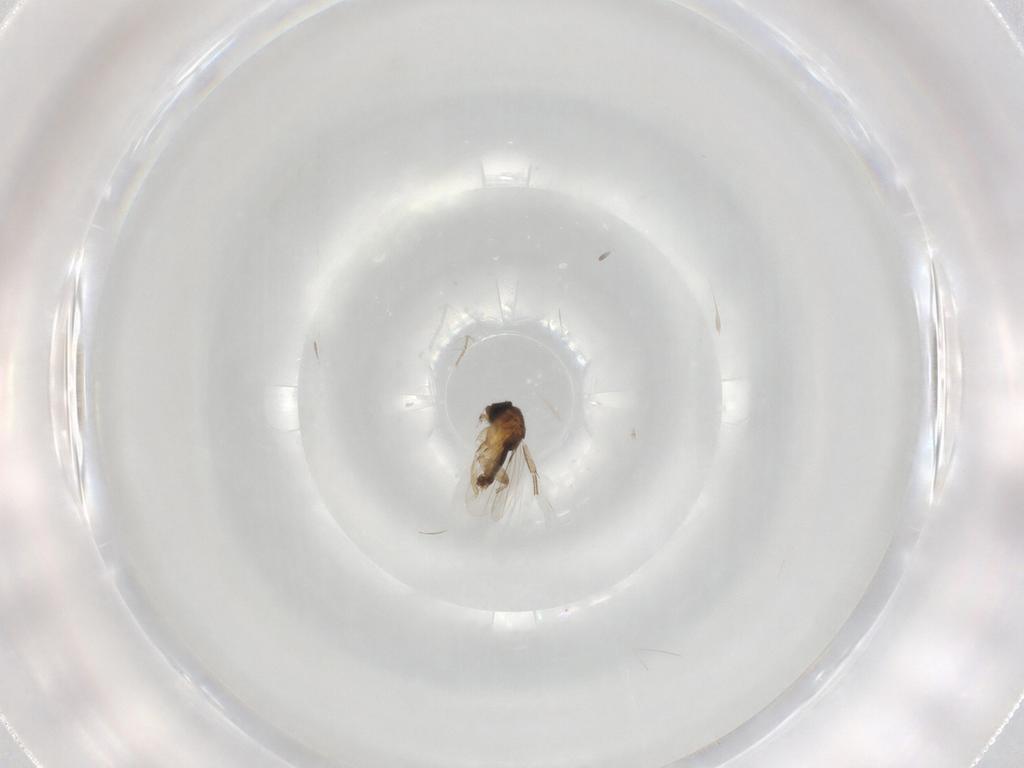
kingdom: Animalia
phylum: Arthropoda
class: Insecta
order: Diptera
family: Phoridae
